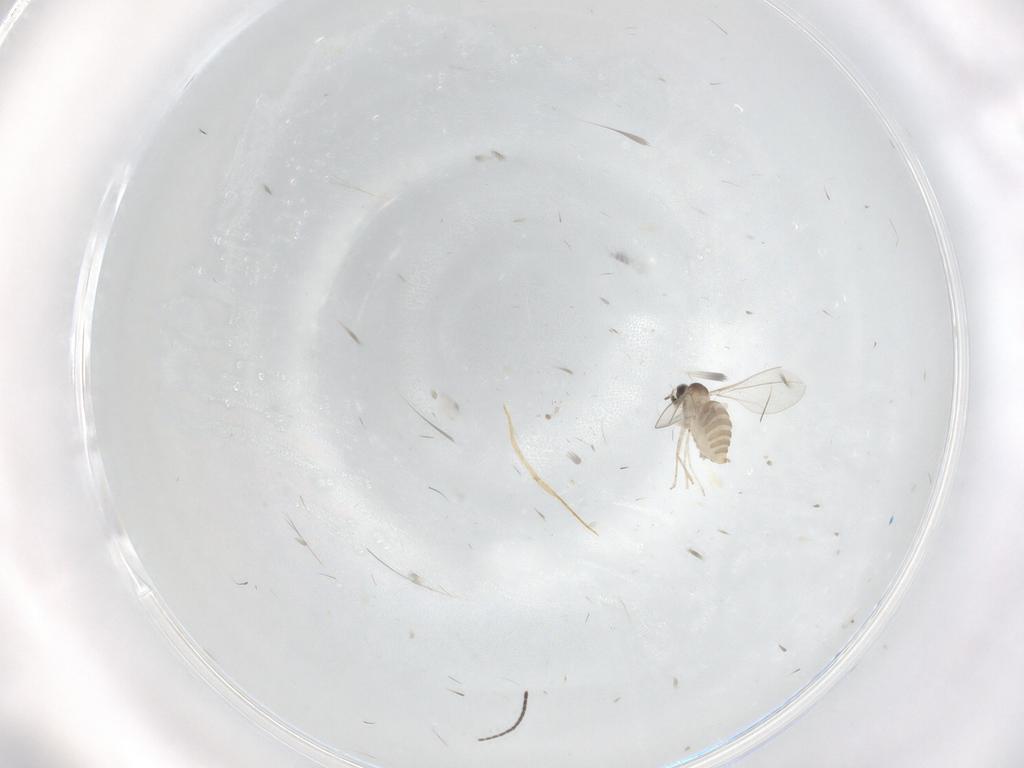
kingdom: Animalia
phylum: Arthropoda
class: Insecta
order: Diptera
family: Cecidomyiidae
